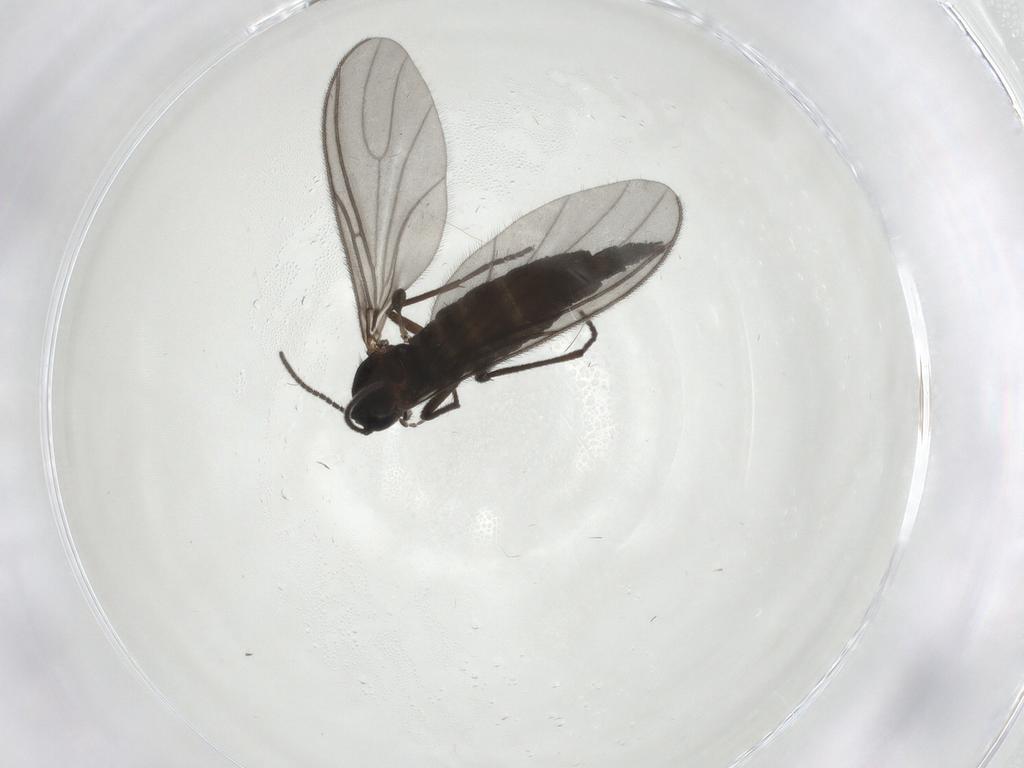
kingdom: Animalia
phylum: Arthropoda
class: Insecta
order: Diptera
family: Sciaridae
